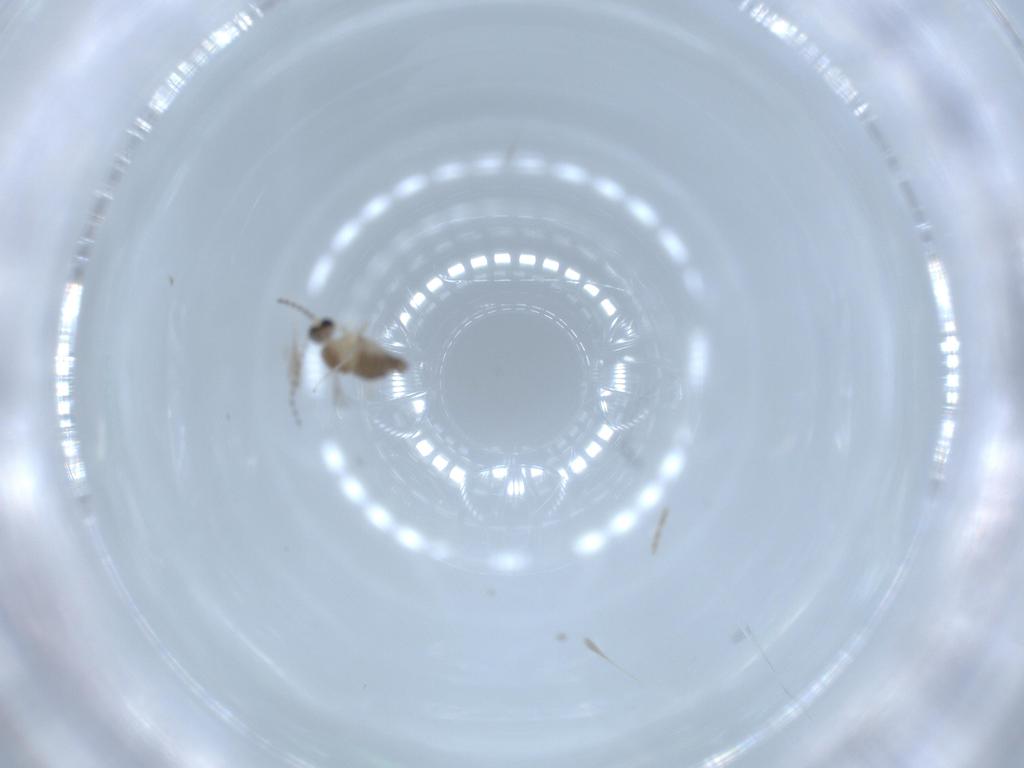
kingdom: Animalia
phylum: Arthropoda
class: Insecta
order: Diptera
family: Cecidomyiidae
